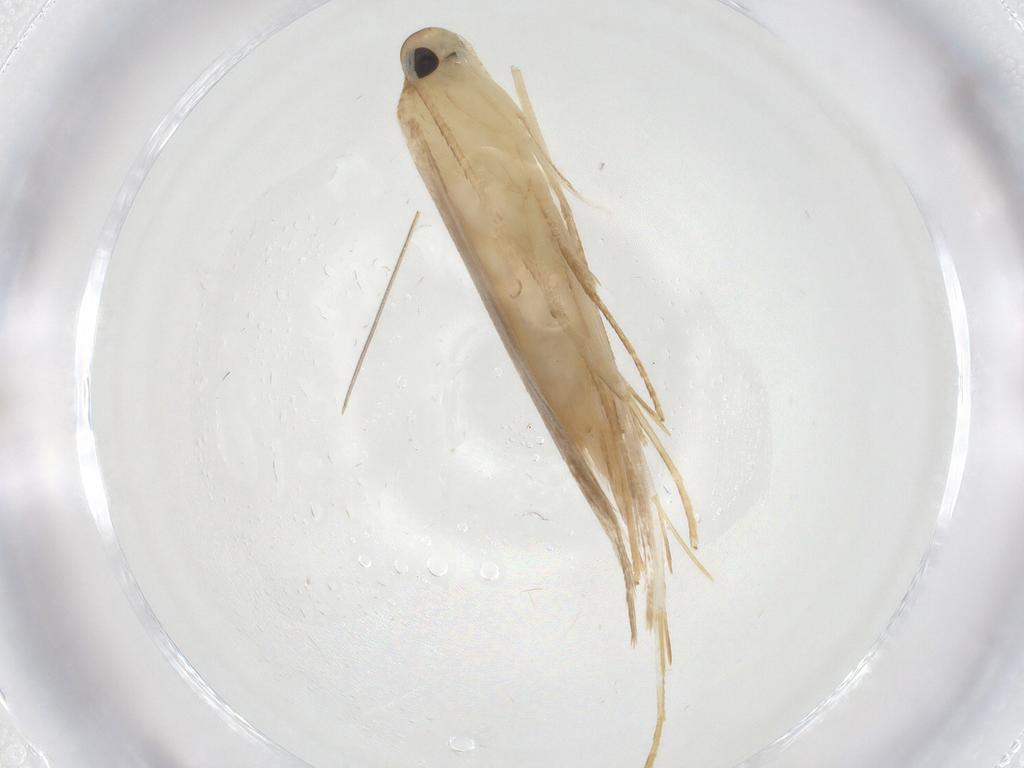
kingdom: Animalia
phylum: Arthropoda
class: Insecta
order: Lepidoptera
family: Lecithoceridae
